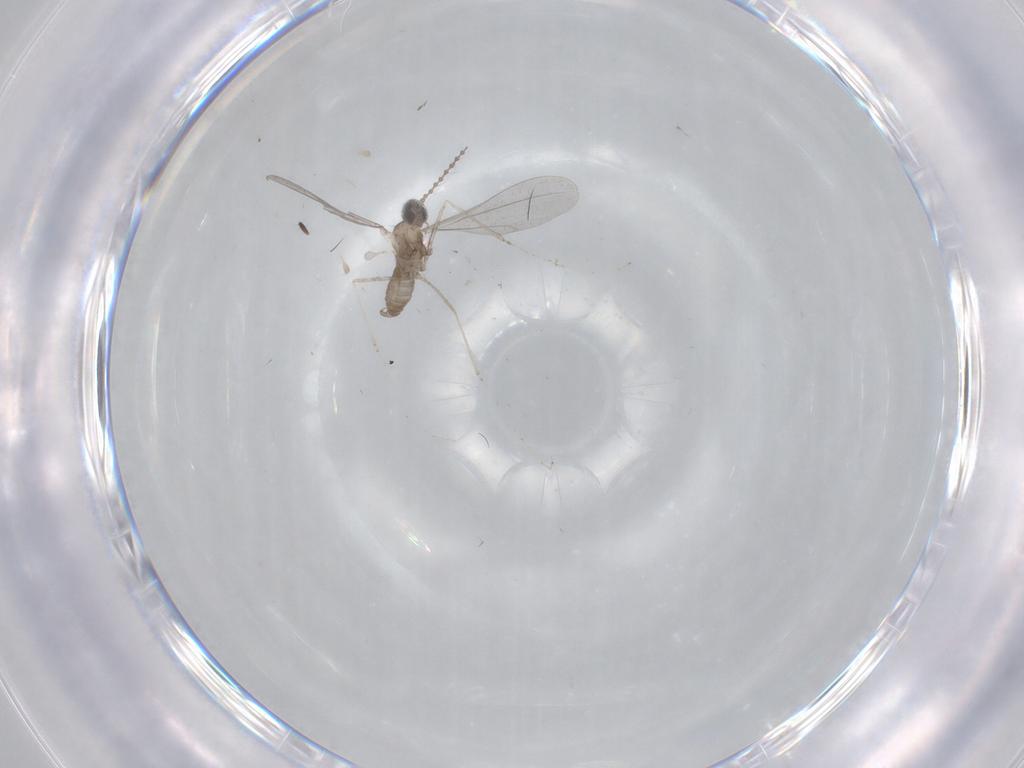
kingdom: Animalia
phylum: Arthropoda
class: Insecta
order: Diptera
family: Cecidomyiidae
